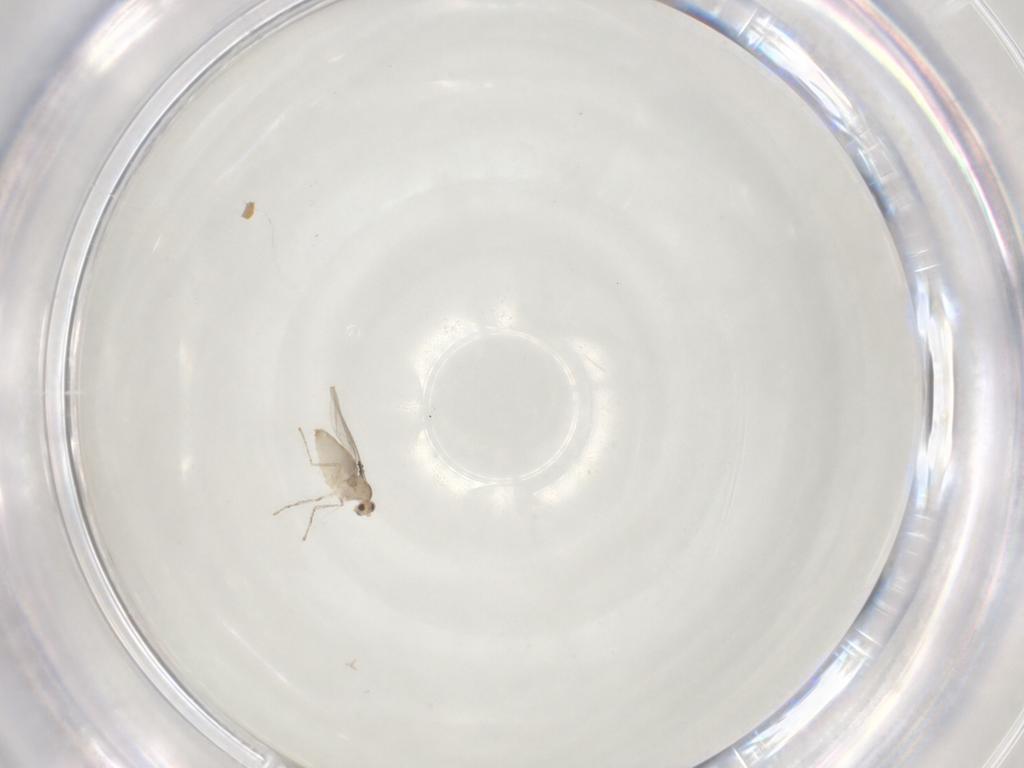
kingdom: Animalia
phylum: Arthropoda
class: Insecta
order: Diptera
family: Cecidomyiidae
